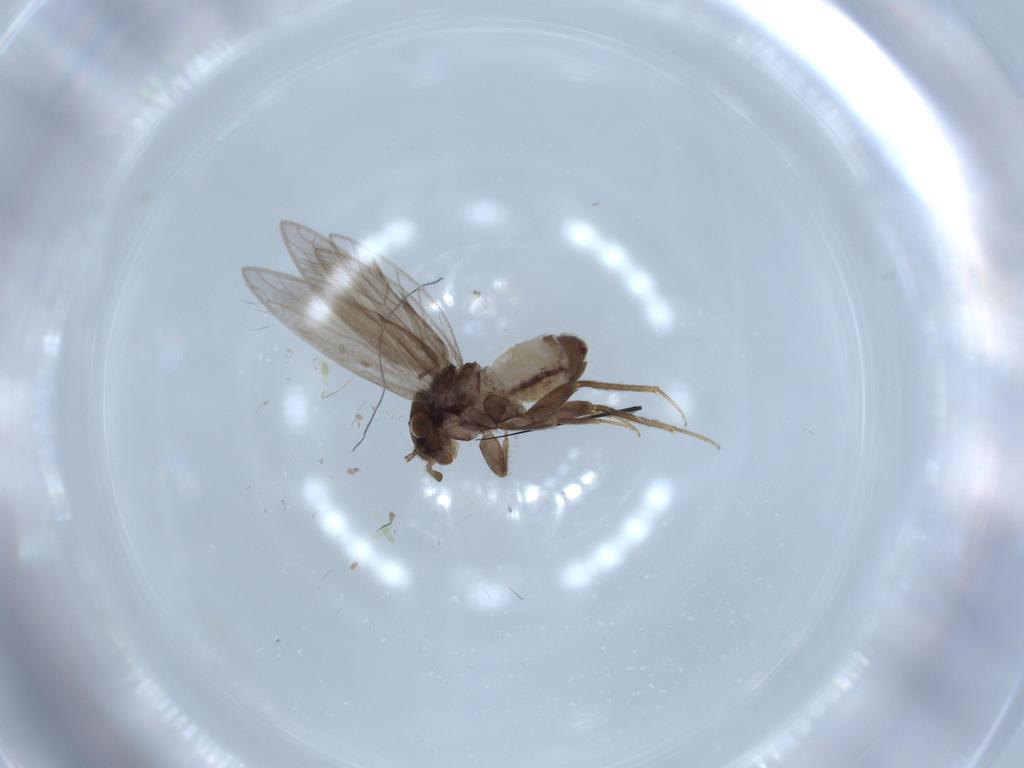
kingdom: Animalia
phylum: Arthropoda
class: Insecta
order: Psocodea
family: Lepidopsocidae
